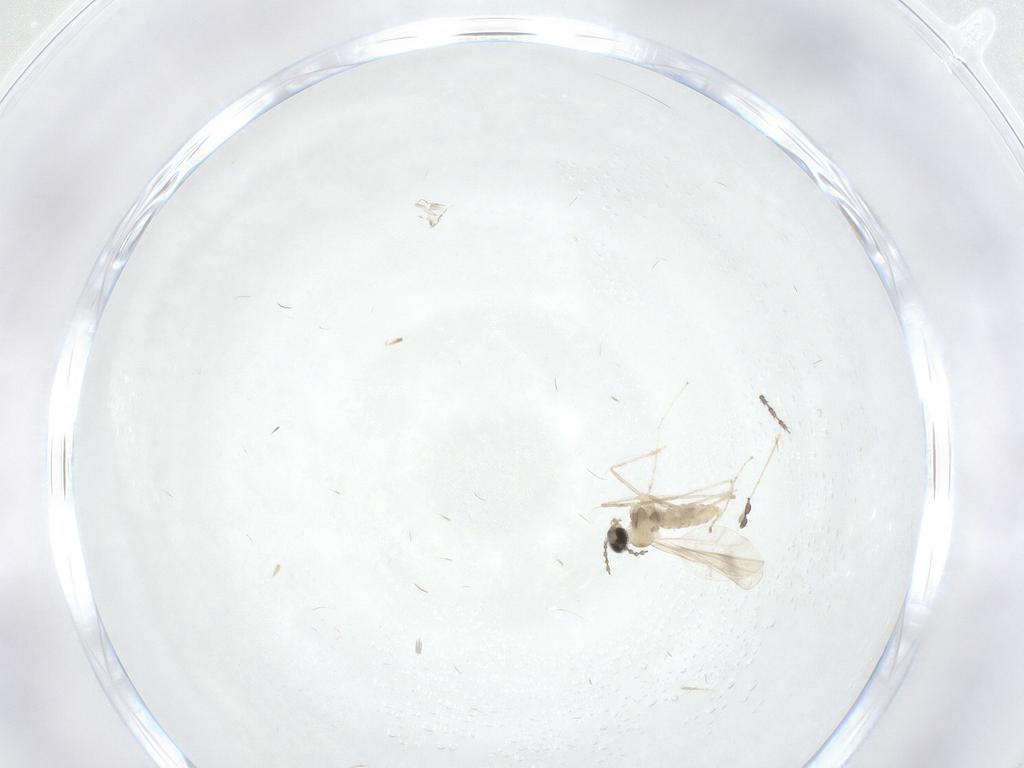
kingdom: Animalia
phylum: Arthropoda
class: Insecta
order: Diptera
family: Cecidomyiidae
